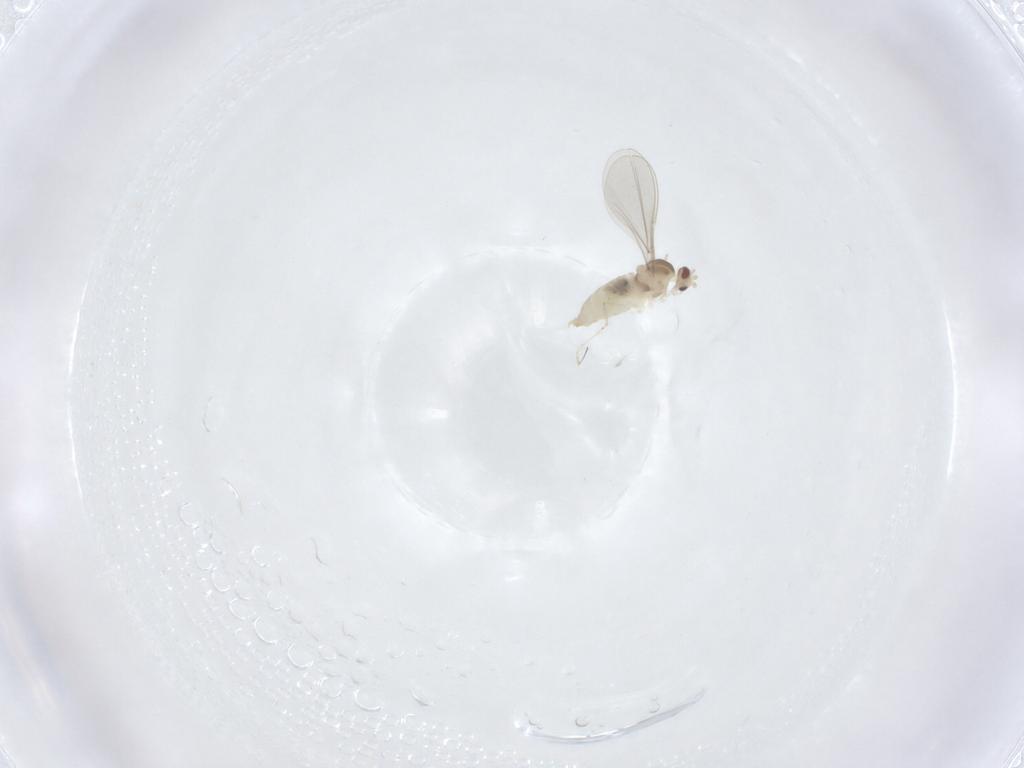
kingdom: Animalia
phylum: Arthropoda
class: Insecta
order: Diptera
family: Cecidomyiidae
